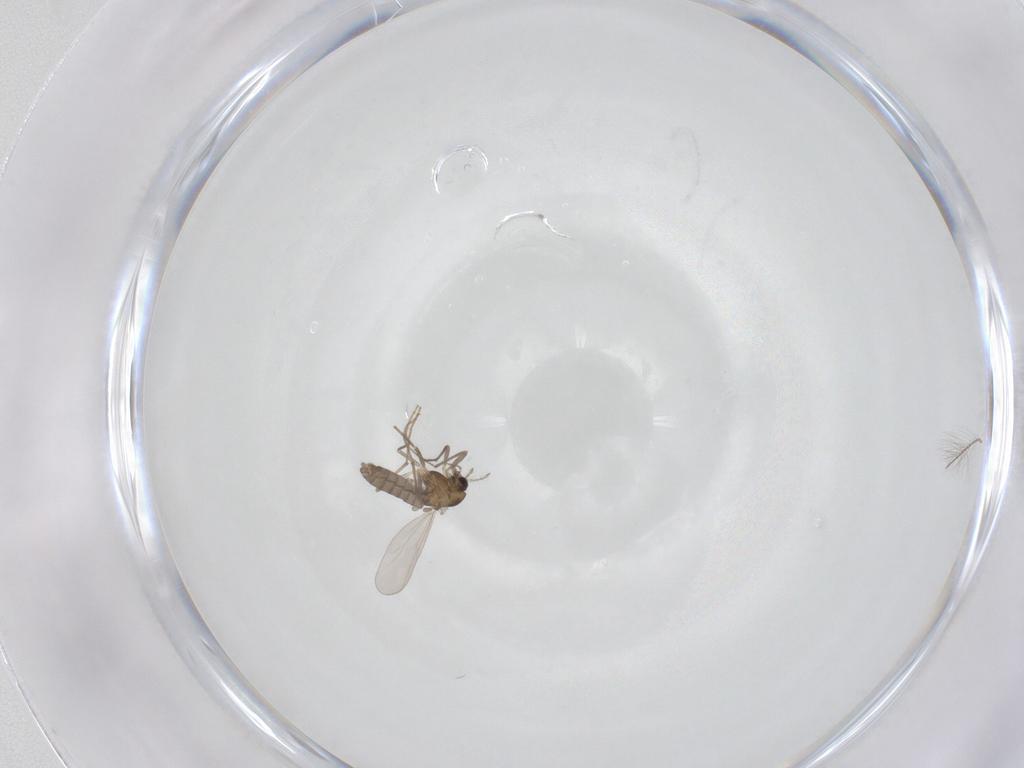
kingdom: Animalia
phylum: Arthropoda
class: Insecta
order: Diptera
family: Chironomidae
